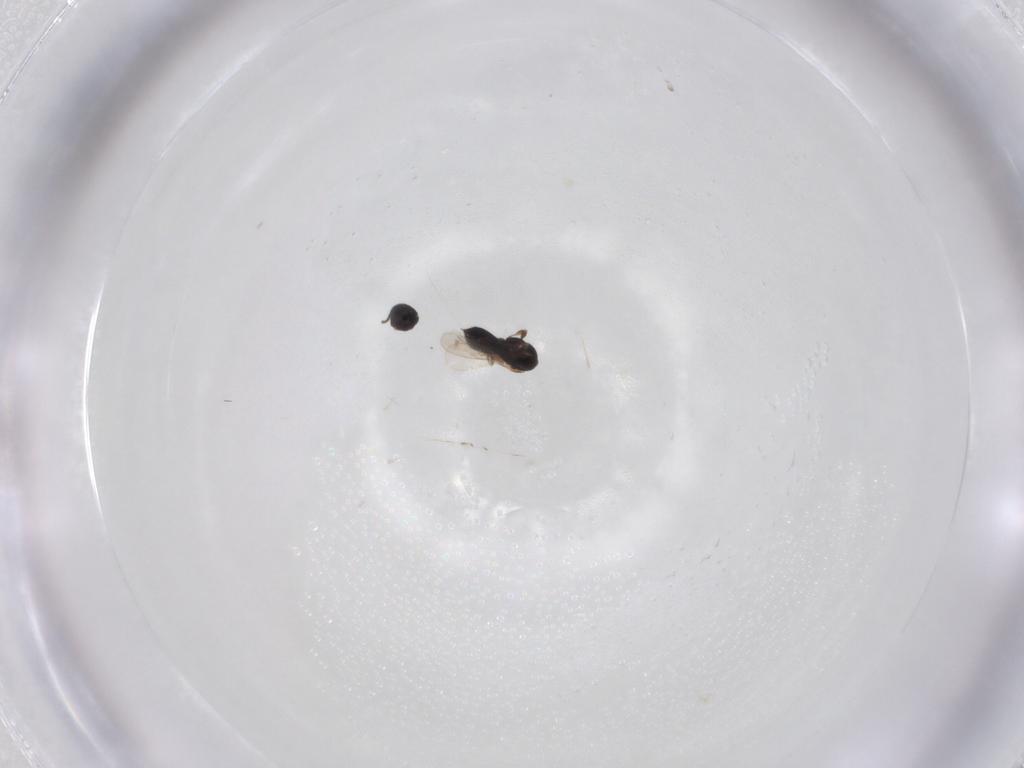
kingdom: Animalia
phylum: Arthropoda
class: Insecta
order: Hymenoptera
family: Scelionidae
